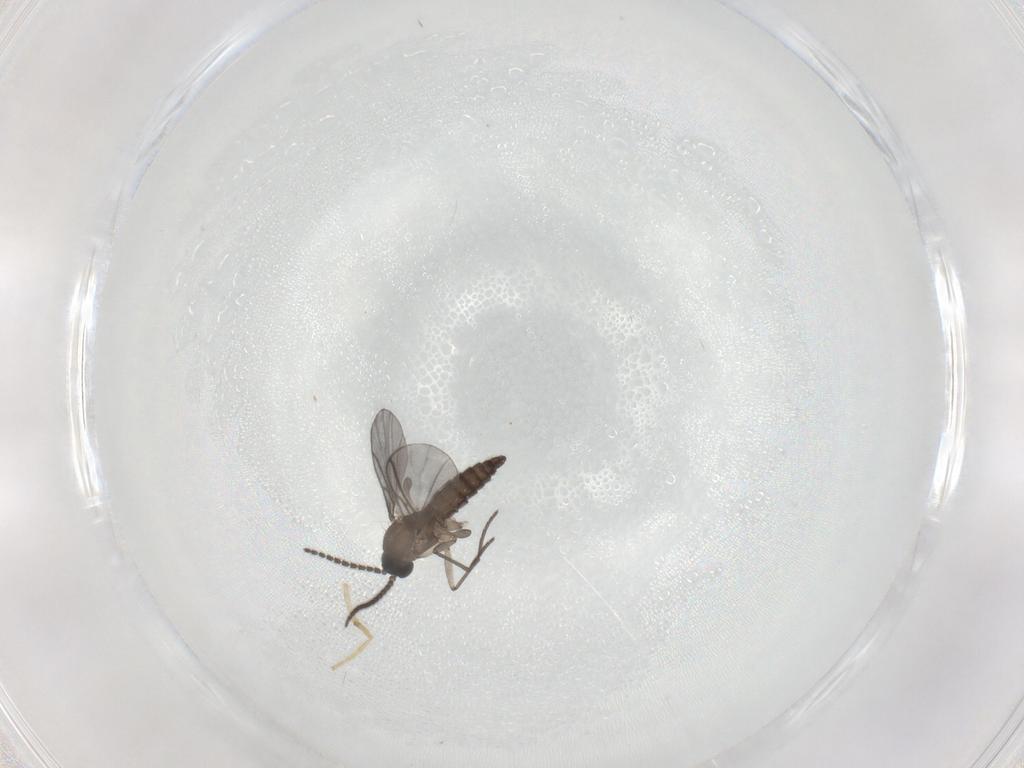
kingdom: Animalia
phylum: Arthropoda
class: Insecta
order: Diptera
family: Chironomidae
